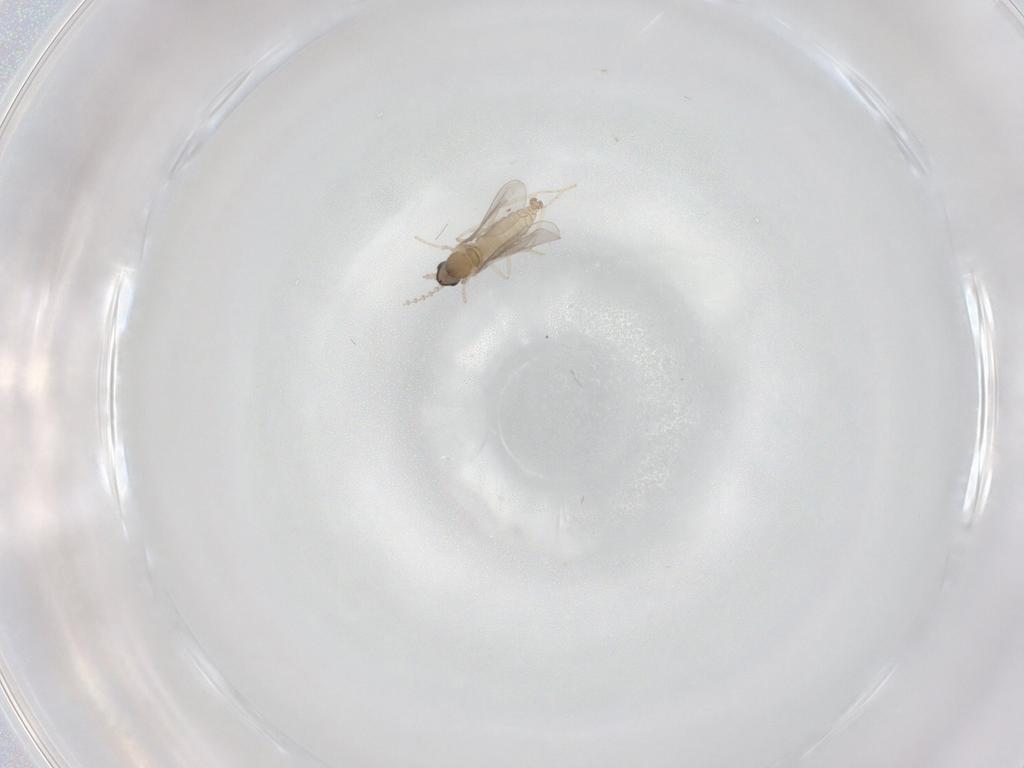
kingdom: Animalia
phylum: Arthropoda
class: Insecta
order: Diptera
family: Cecidomyiidae
